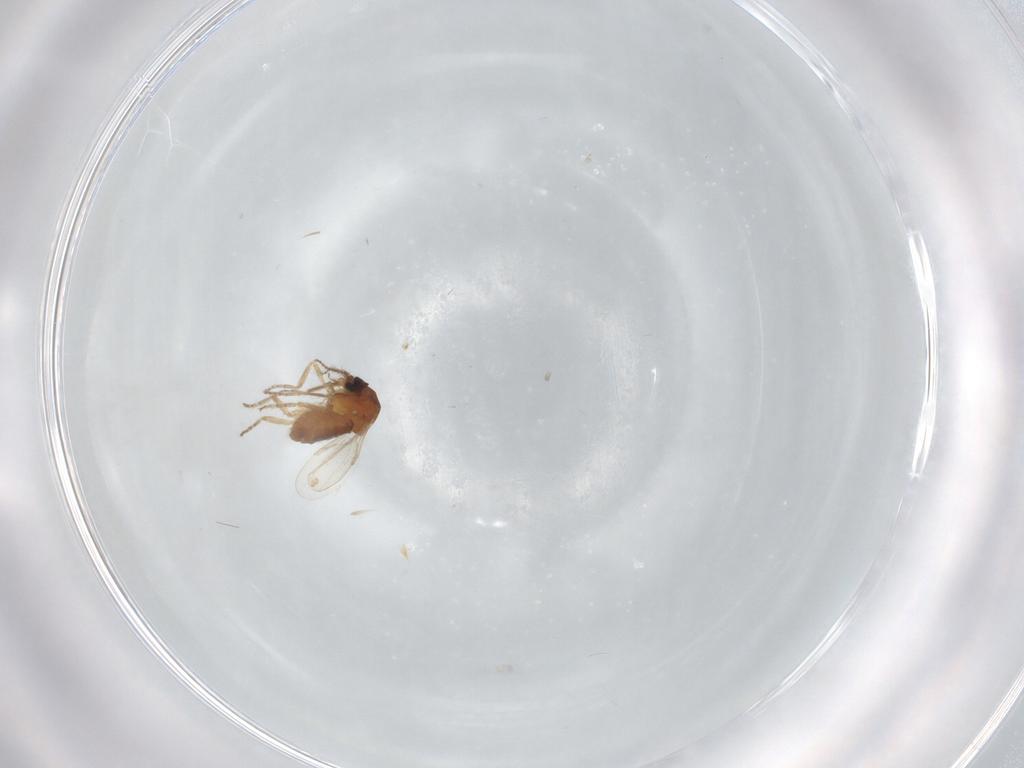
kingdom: Animalia
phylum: Arthropoda
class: Insecta
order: Diptera
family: Ceratopogonidae
